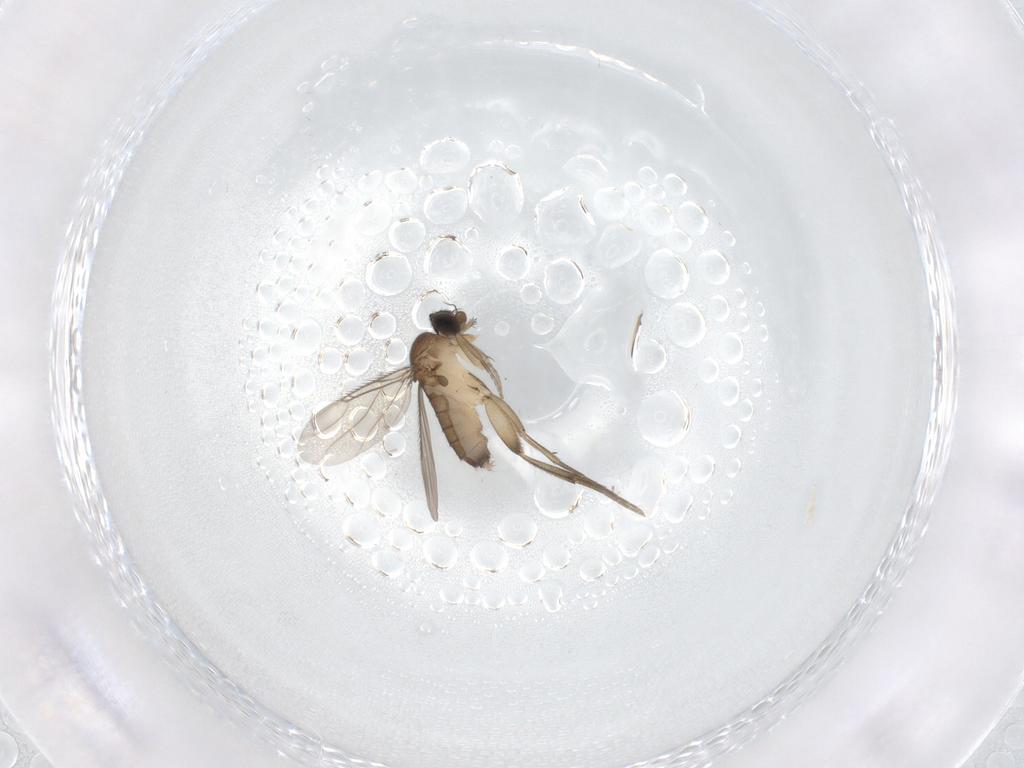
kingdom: Animalia
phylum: Arthropoda
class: Insecta
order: Diptera
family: Phoridae
